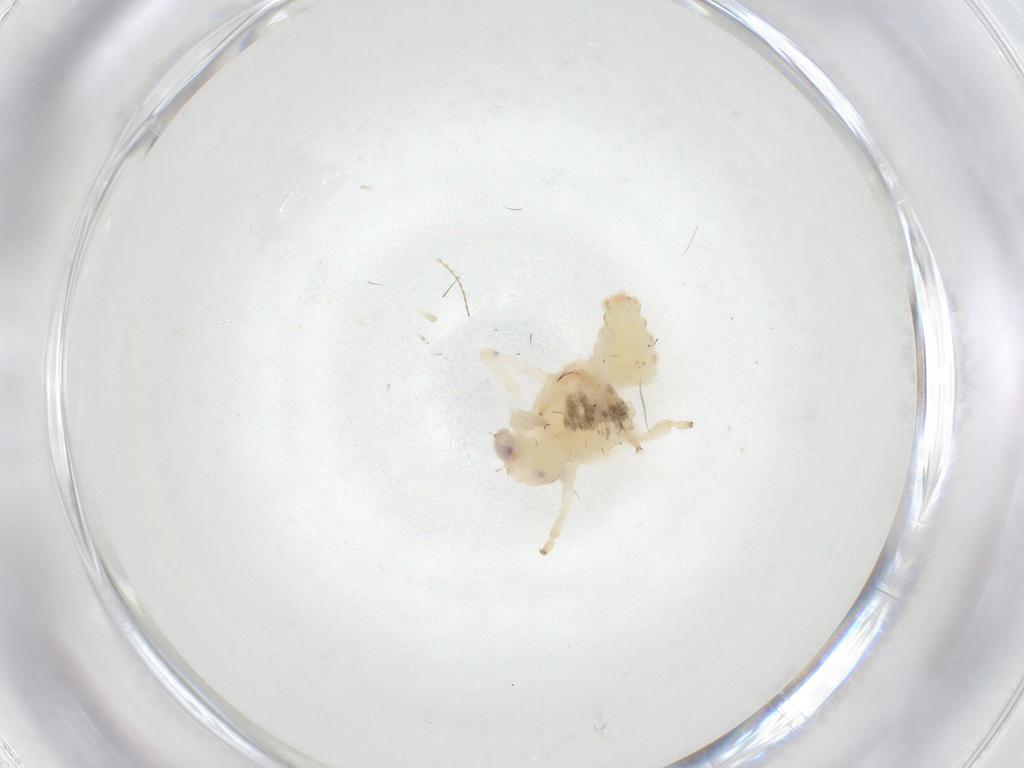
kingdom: Animalia
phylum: Arthropoda
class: Insecta
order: Hemiptera
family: Nogodinidae
